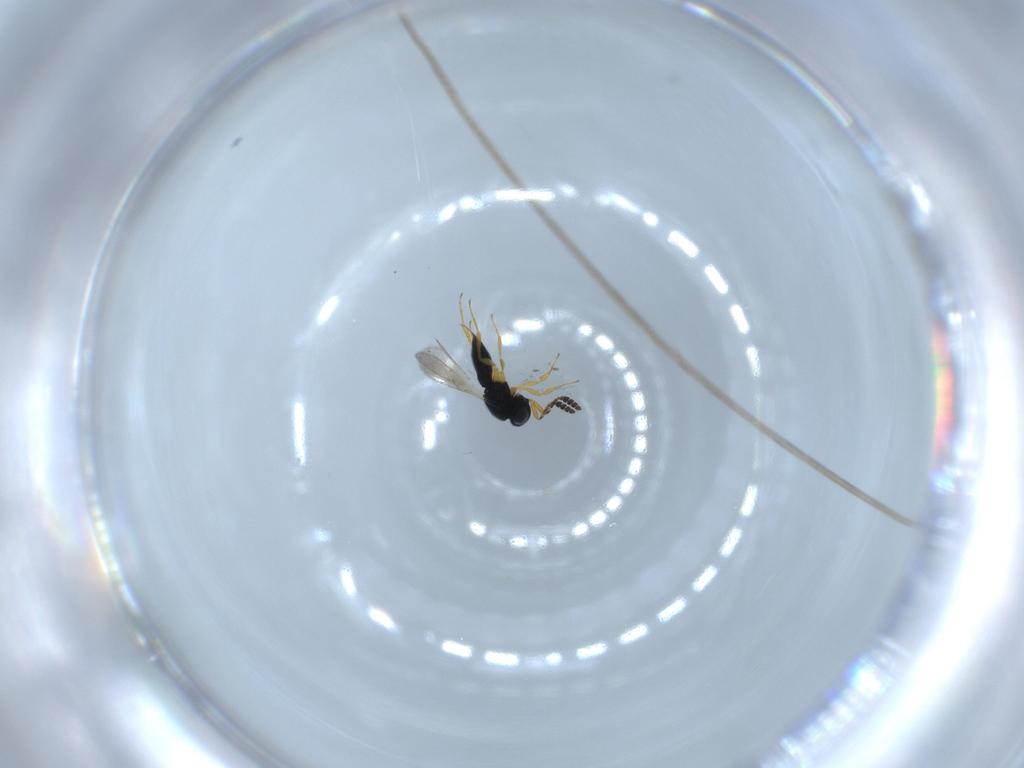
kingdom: Animalia
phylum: Arthropoda
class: Insecta
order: Hymenoptera
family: Scelionidae
